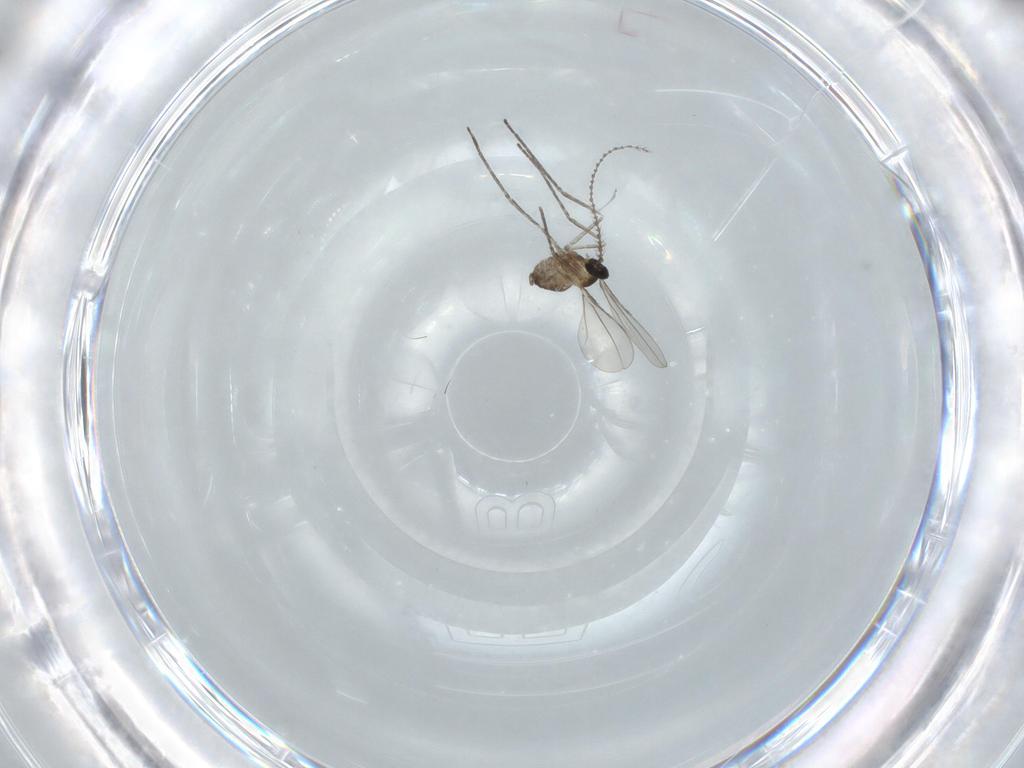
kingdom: Animalia
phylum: Arthropoda
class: Insecta
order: Diptera
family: Cecidomyiidae
